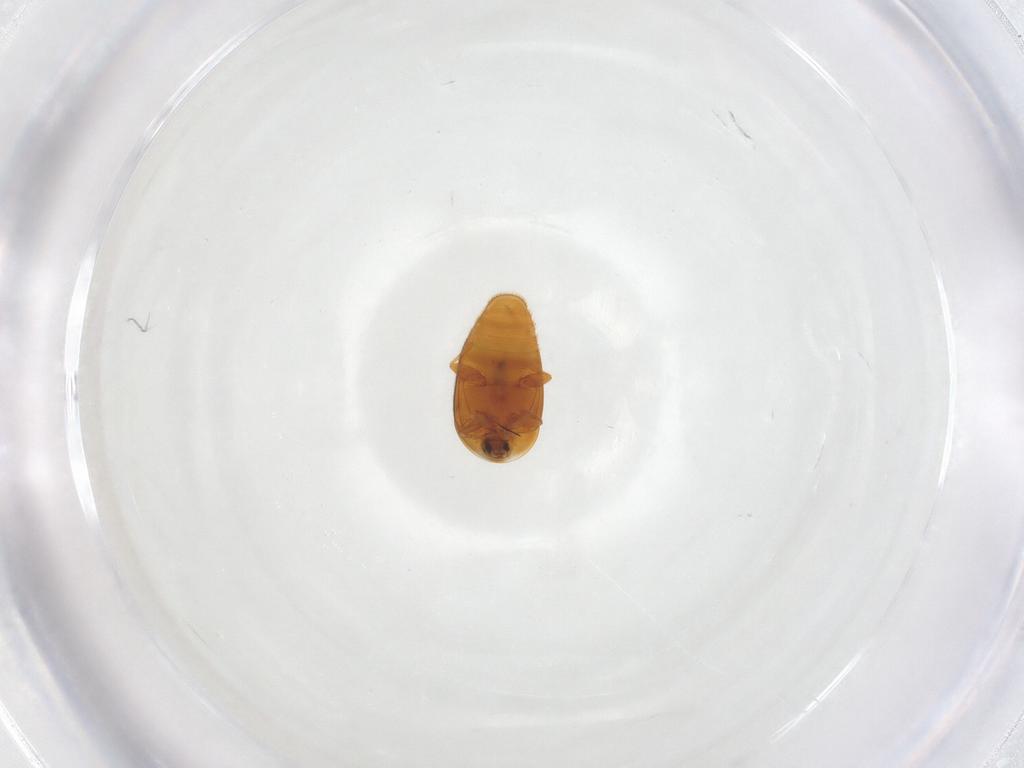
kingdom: Animalia
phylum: Arthropoda
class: Insecta
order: Coleoptera
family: Corylophidae
